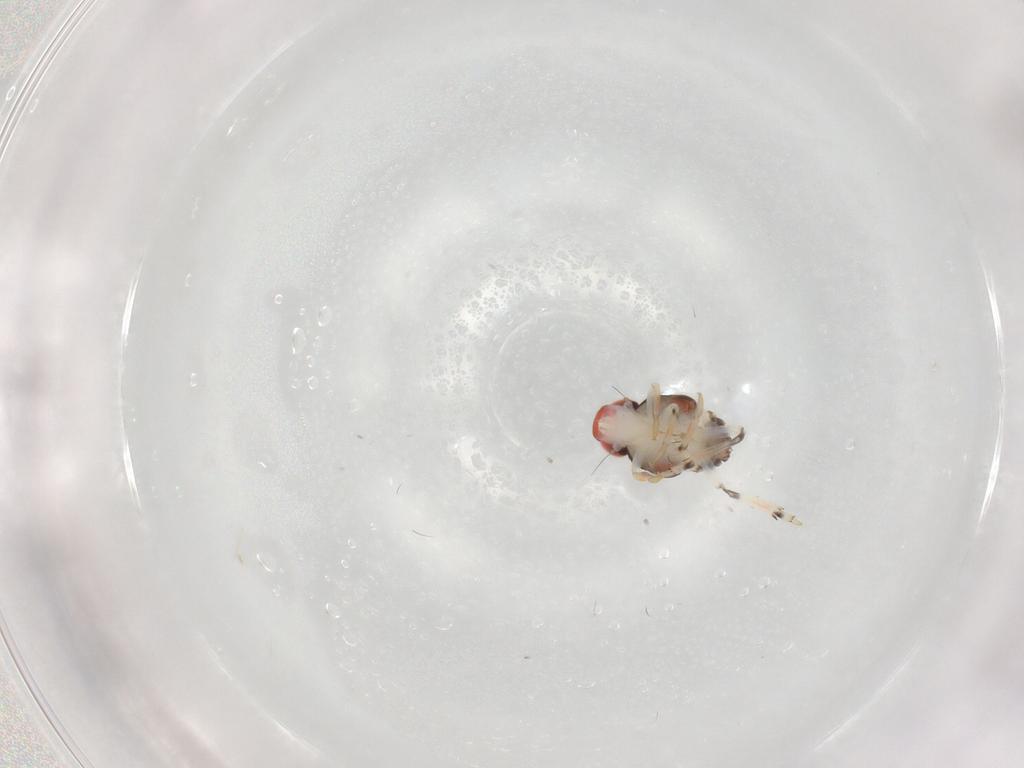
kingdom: Animalia
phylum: Arthropoda
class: Insecta
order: Hemiptera
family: Fulgoroidea_incertae_sedis
